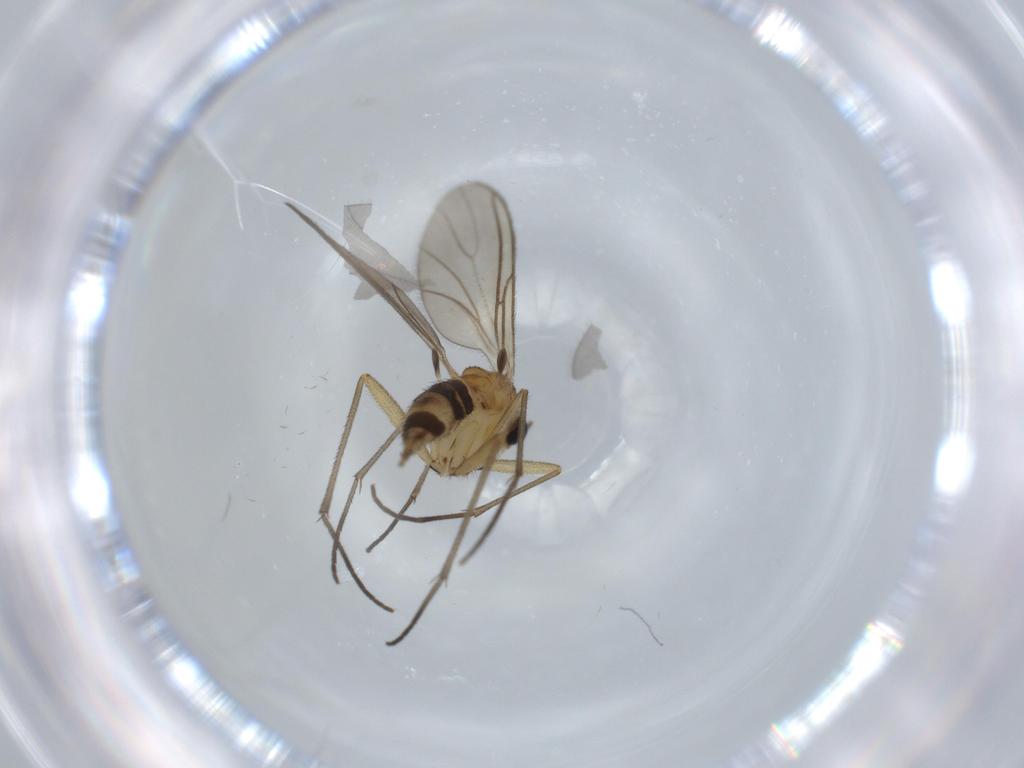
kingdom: Animalia
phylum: Arthropoda
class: Insecta
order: Diptera
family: Sciaridae
